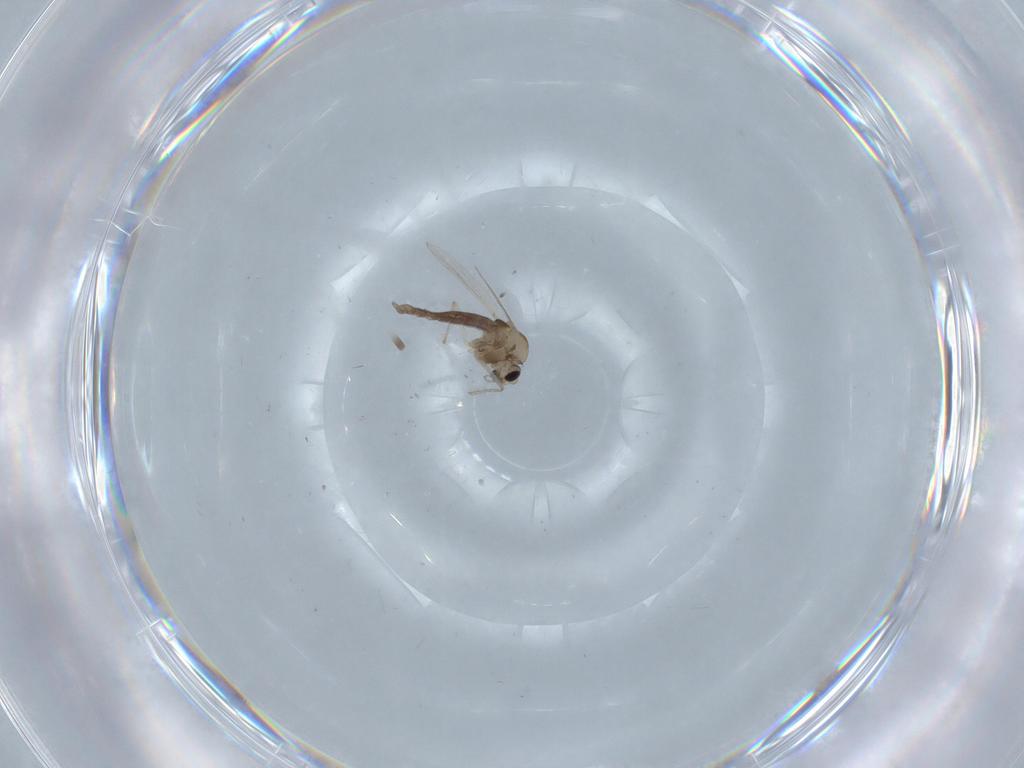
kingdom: Animalia
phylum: Arthropoda
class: Insecta
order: Diptera
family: Chironomidae
